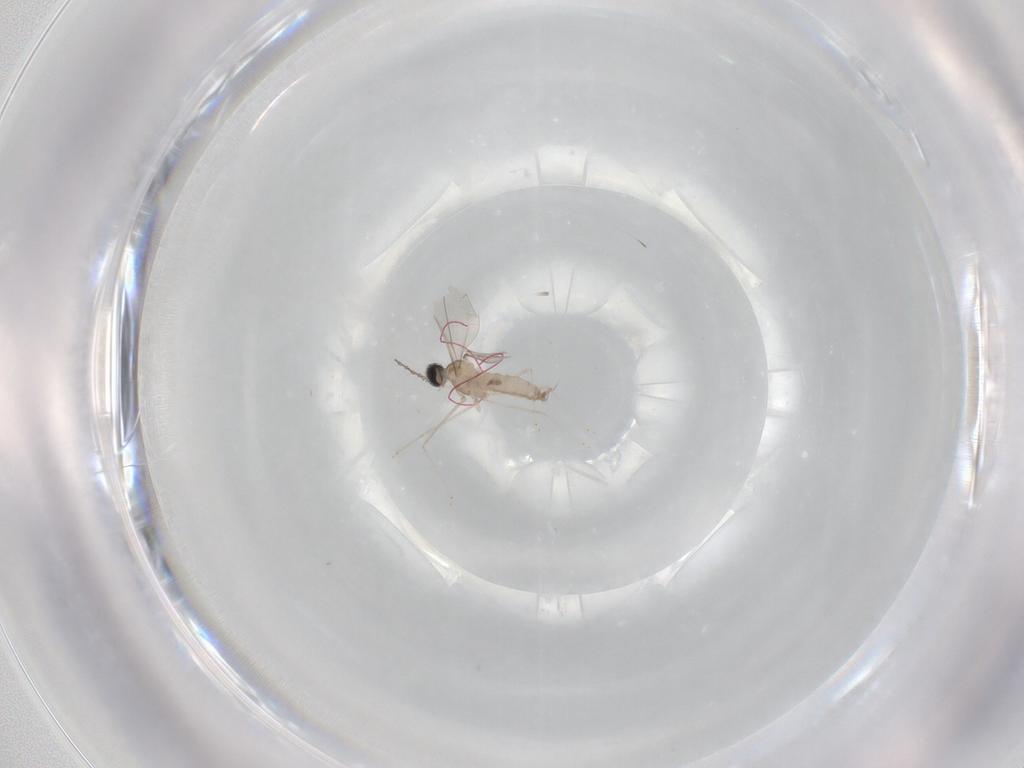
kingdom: Animalia
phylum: Arthropoda
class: Insecta
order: Diptera
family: Cecidomyiidae
